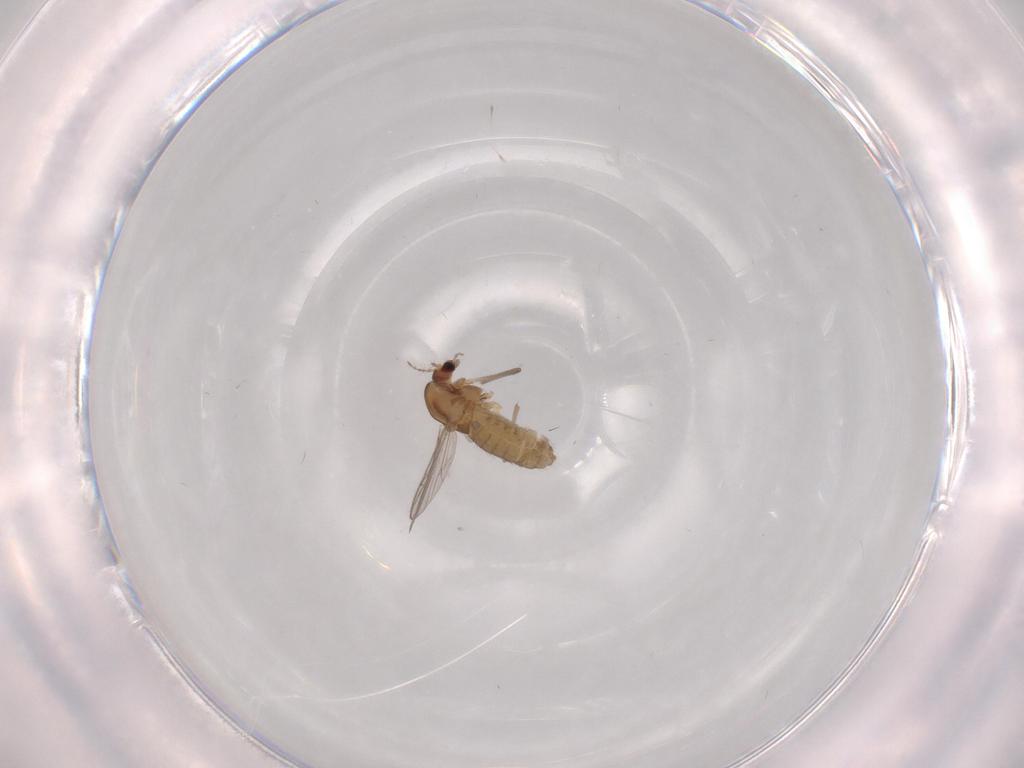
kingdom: Animalia
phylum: Arthropoda
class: Insecta
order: Diptera
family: Chironomidae
